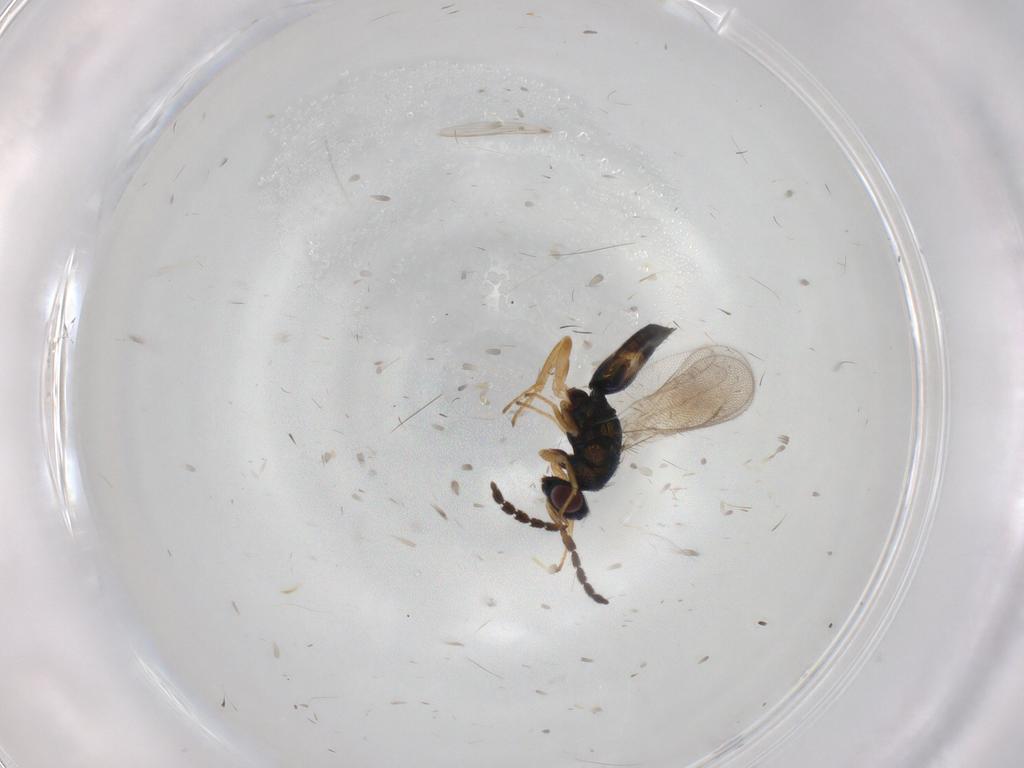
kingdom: Animalia
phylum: Arthropoda
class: Insecta
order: Hymenoptera
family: Eulophidae
